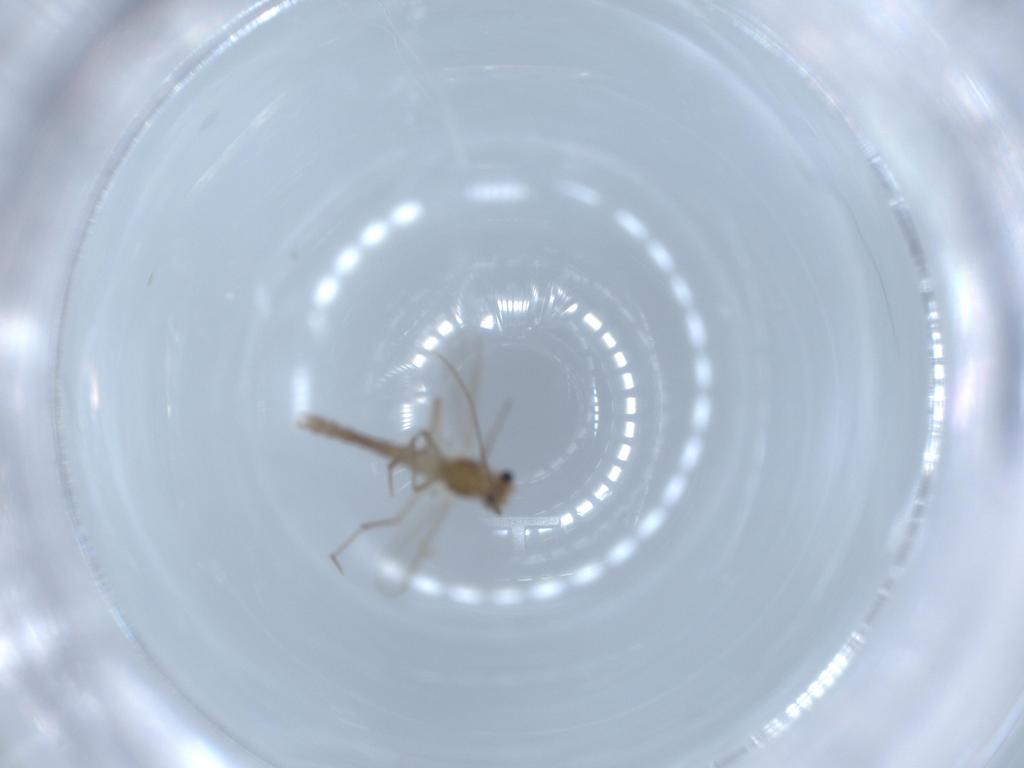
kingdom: Animalia
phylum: Arthropoda
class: Insecta
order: Diptera
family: Chironomidae
